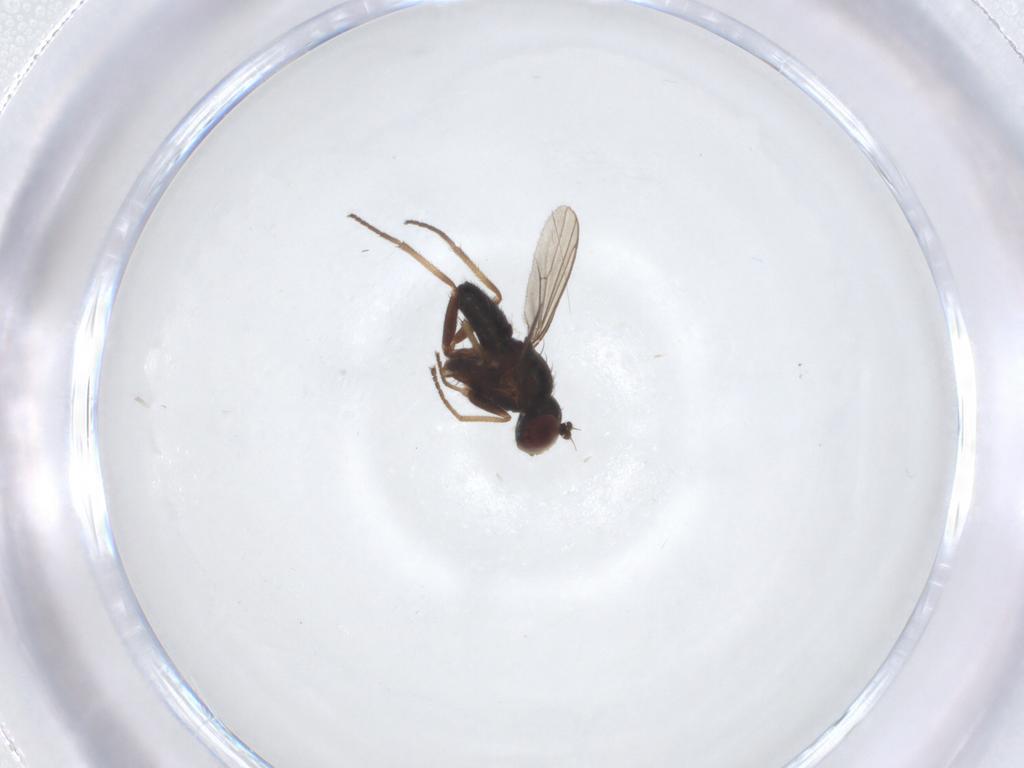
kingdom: Animalia
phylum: Arthropoda
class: Insecta
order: Diptera
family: Dolichopodidae
